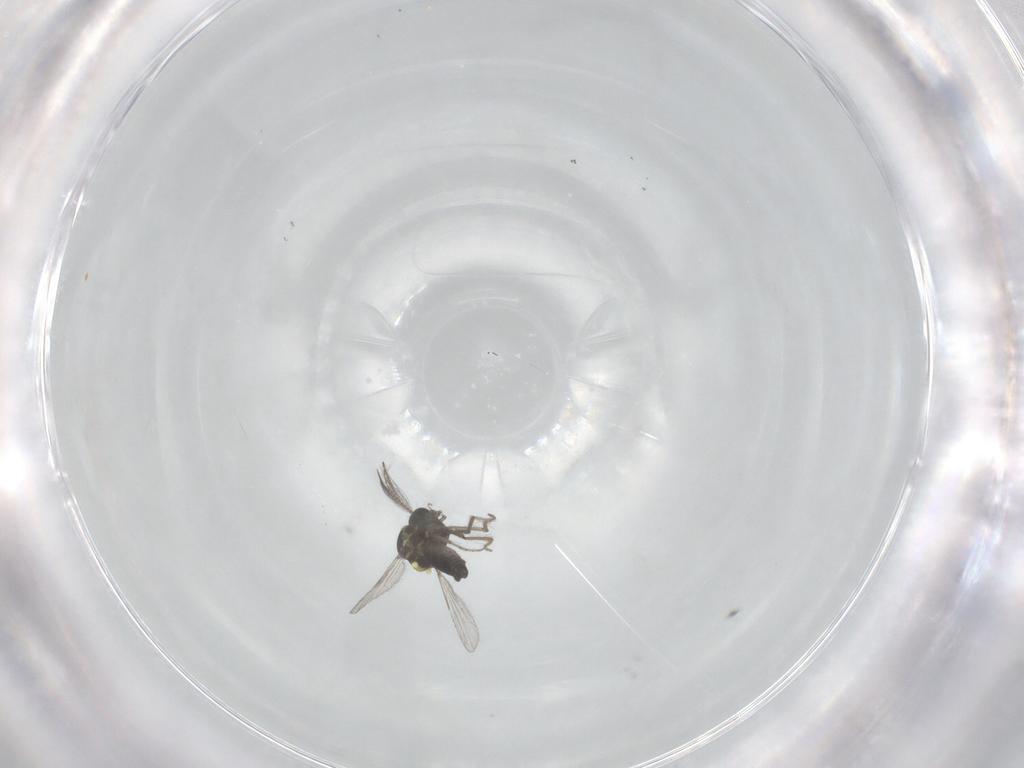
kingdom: Animalia
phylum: Arthropoda
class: Insecta
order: Diptera
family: Ceratopogonidae
